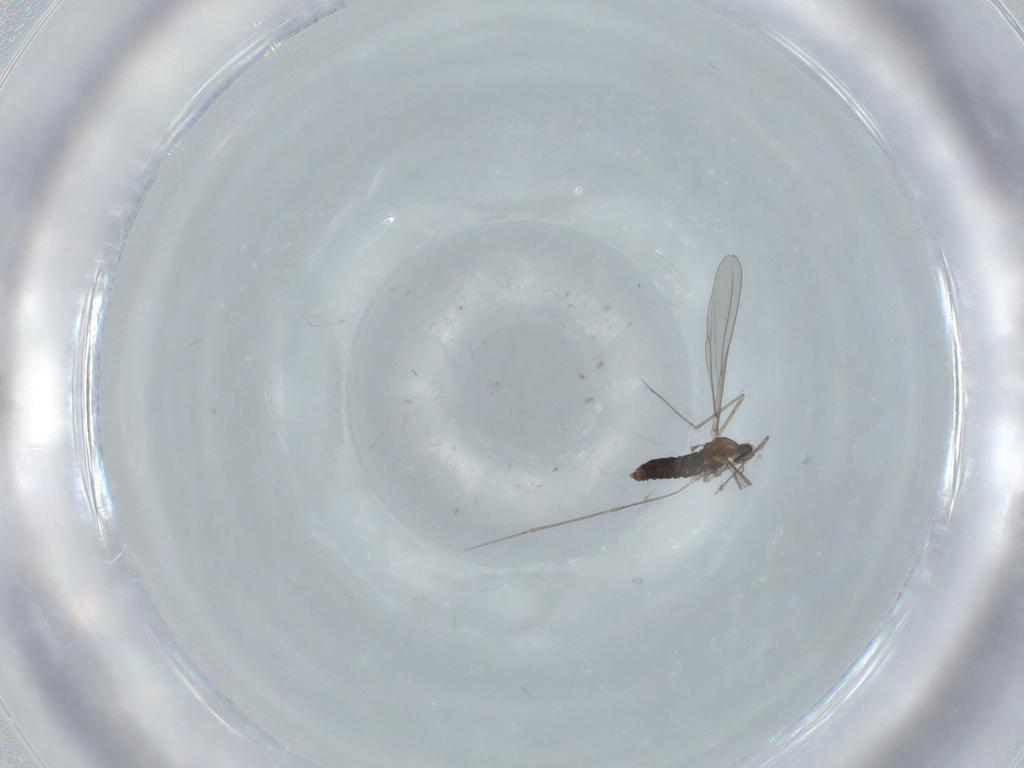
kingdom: Animalia
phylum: Arthropoda
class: Insecta
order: Diptera
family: Cecidomyiidae
